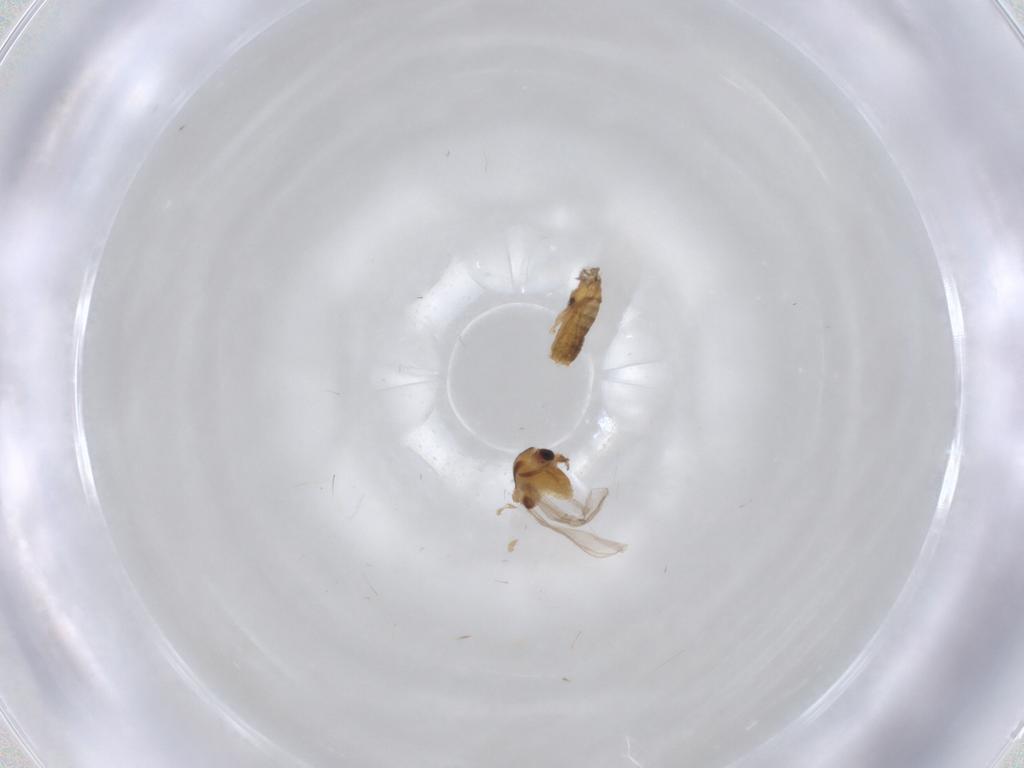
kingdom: Animalia
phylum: Arthropoda
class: Insecta
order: Diptera
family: Chironomidae
